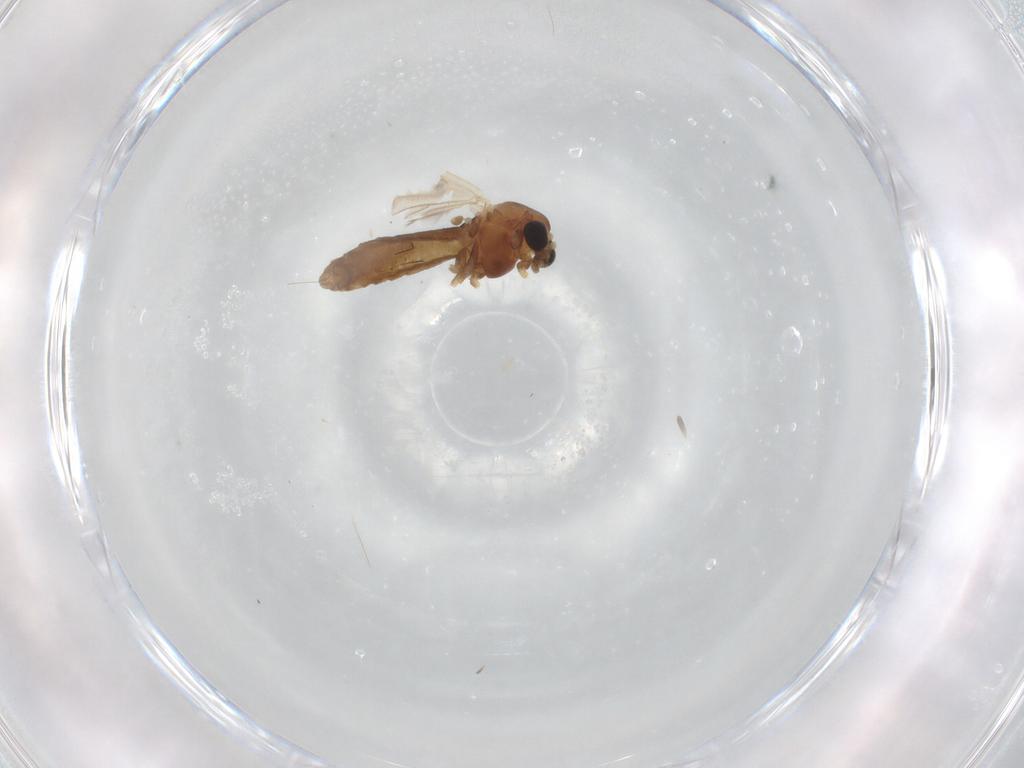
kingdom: Animalia
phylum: Arthropoda
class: Insecta
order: Diptera
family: Chironomidae
